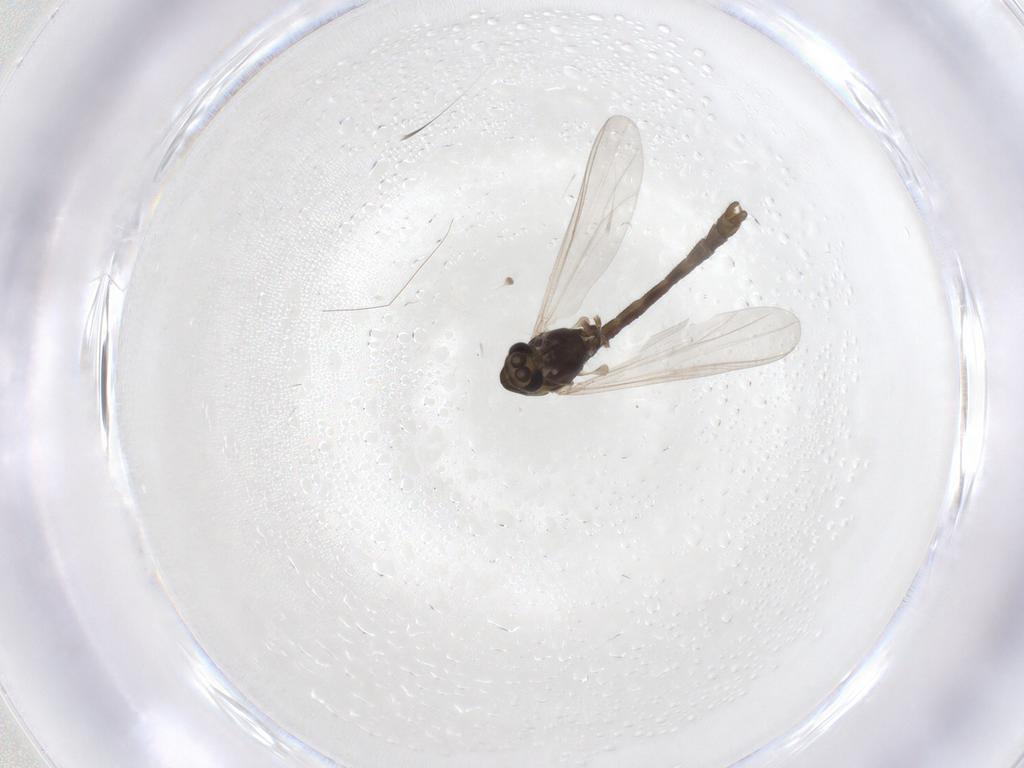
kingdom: Animalia
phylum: Arthropoda
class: Insecta
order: Diptera
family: Chironomidae
